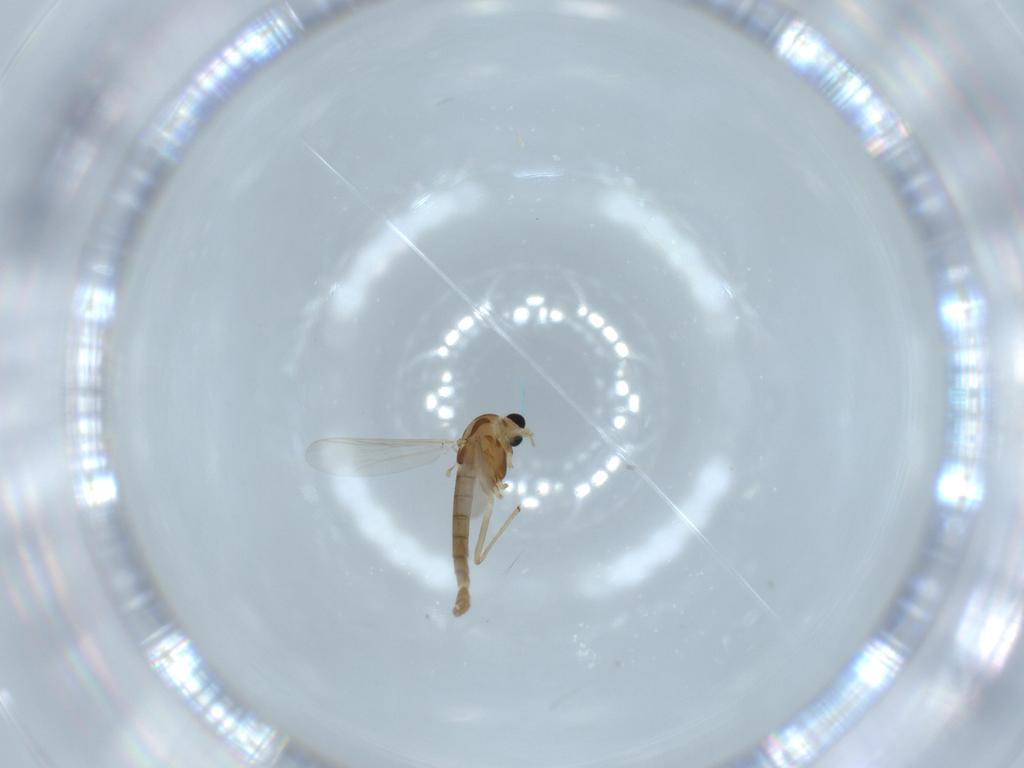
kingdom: Animalia
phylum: Arthropoda
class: Insecta
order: Diptera
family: Chironomidae
